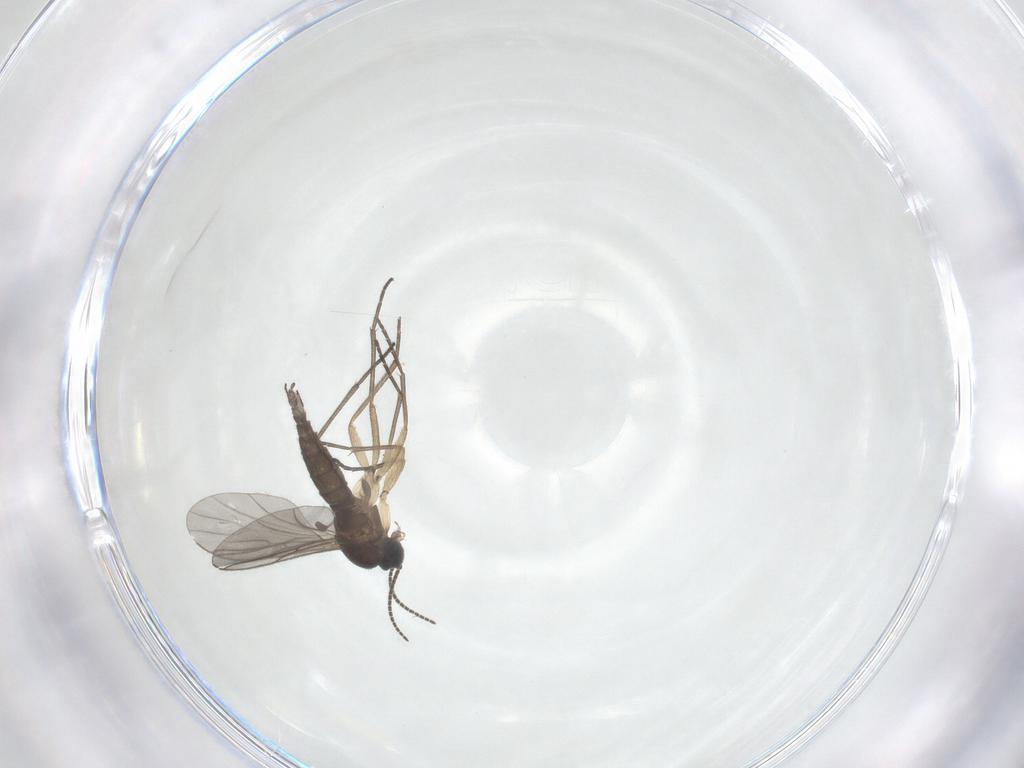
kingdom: Animalia
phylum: Arthropoda
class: Insecta
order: Diptera
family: Sciaridae
